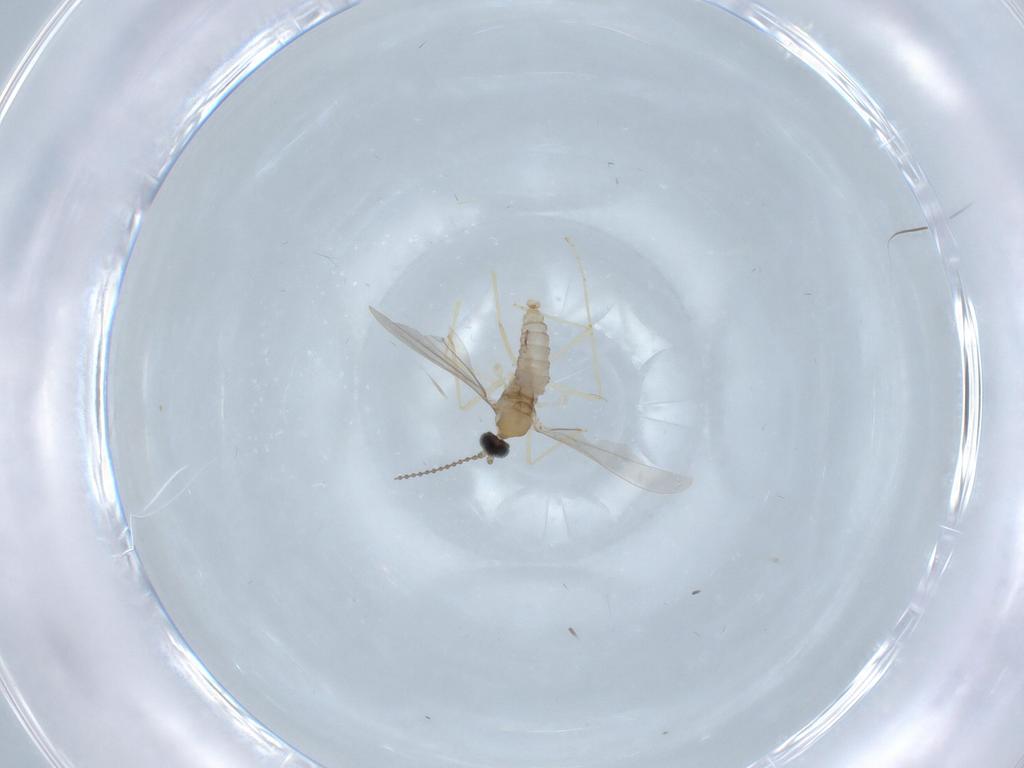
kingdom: Animalia
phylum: Arthropoda
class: Insecta
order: Diptera
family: Cecidomyiidae
